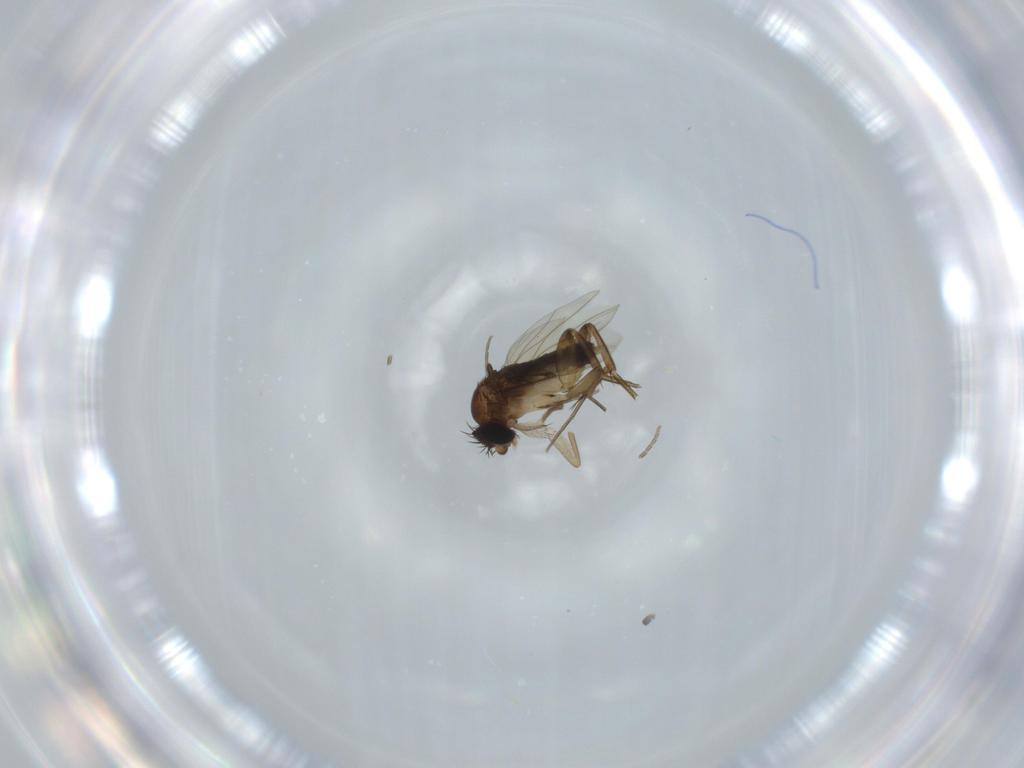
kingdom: Animalia
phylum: Arthropoda
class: Insecta
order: Diptera
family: Phoridae
